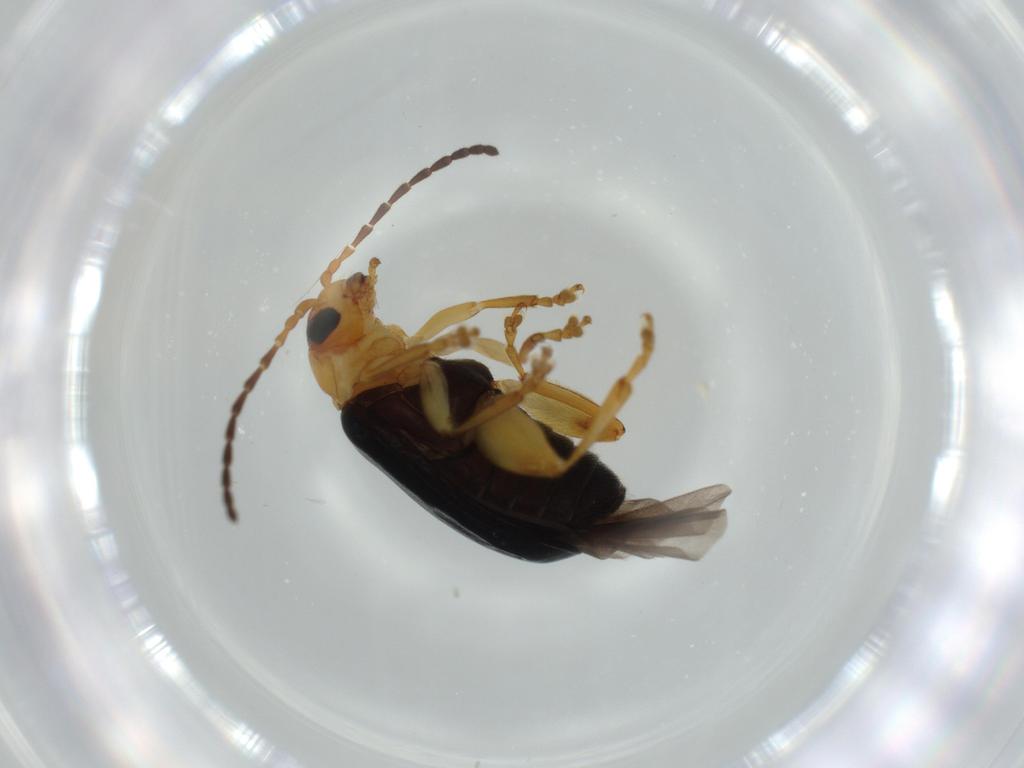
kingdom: Animalia
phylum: Arthropoda
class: Insecta
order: Coleoptera
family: Chrysomelidae
